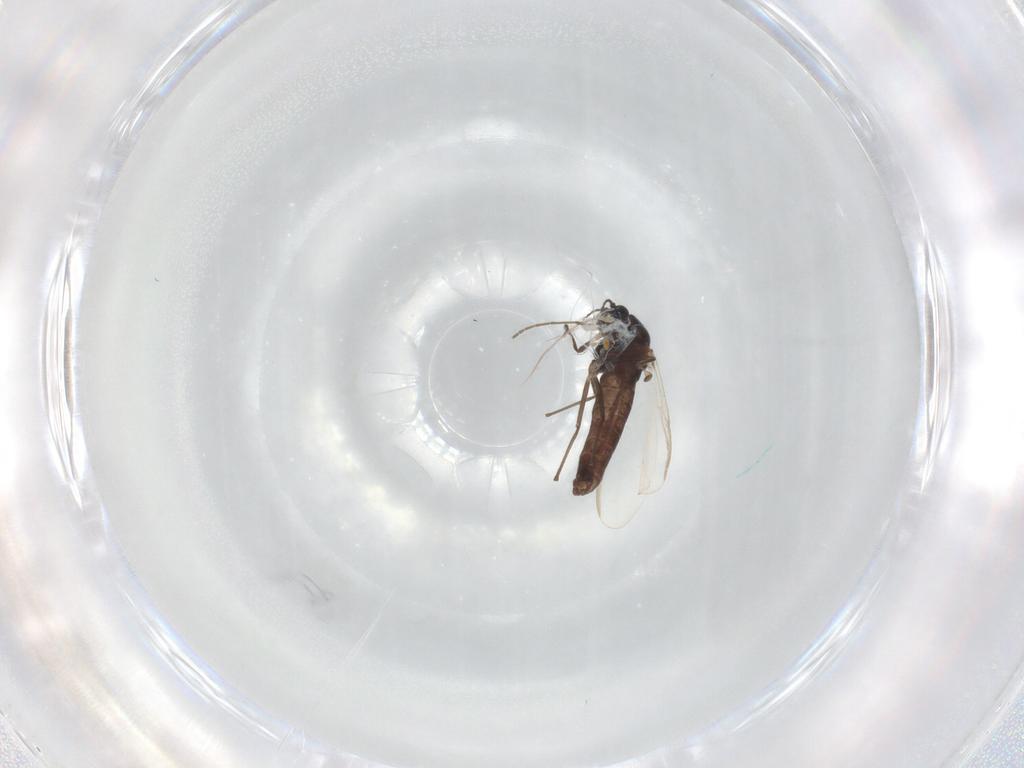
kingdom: Animalia
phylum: Arthropoda
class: Insecta
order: Diptera
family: Chironomidae
